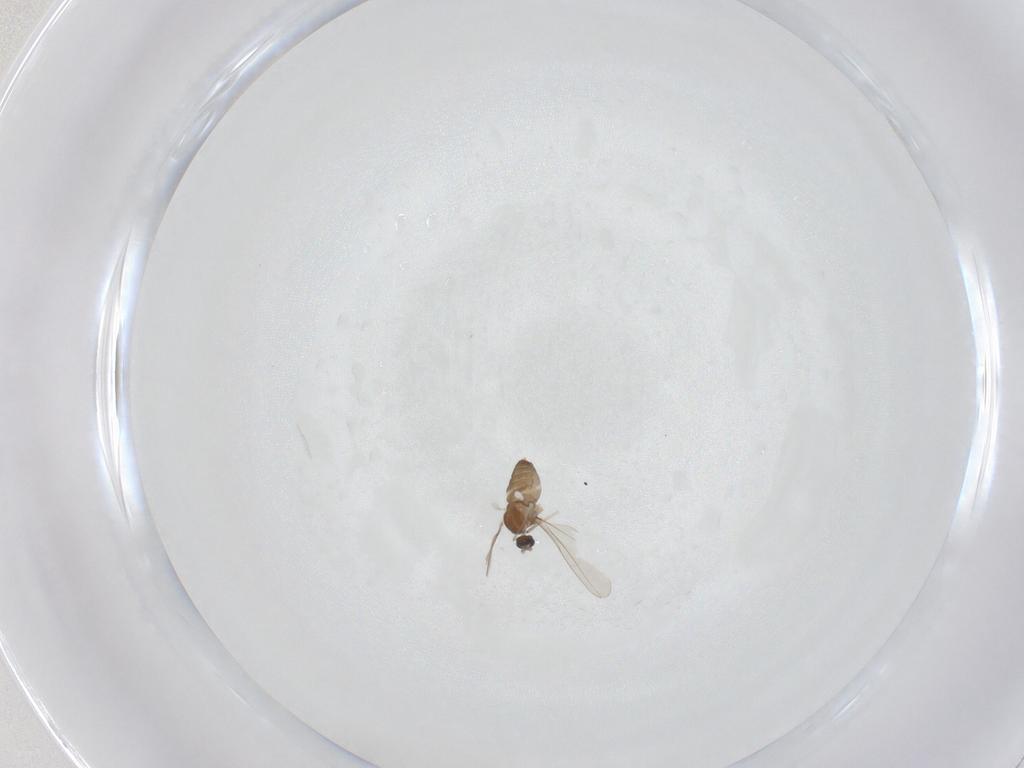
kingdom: Animalia
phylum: Arthropoda
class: Insecta
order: Diptera
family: Cecidomyiidae
